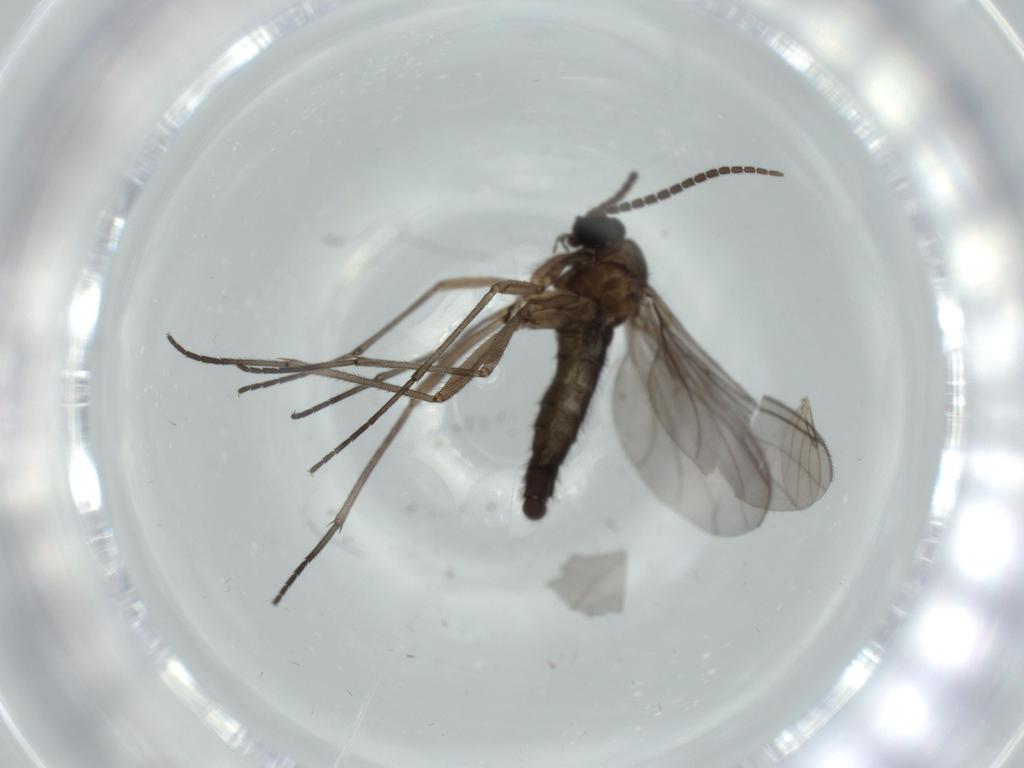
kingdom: Animalia
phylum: Arthropoda
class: Insecta
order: Diptera
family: Sciaridae
